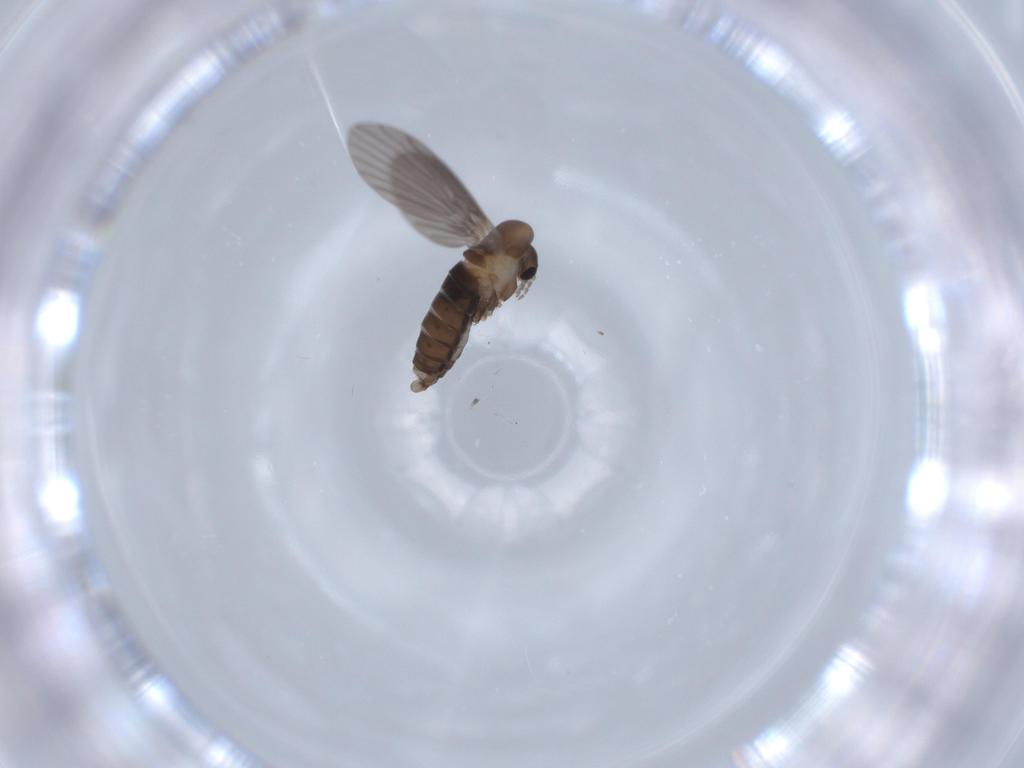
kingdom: Animalia
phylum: Arthropoda
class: Insecta
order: Diptera
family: Psychodidae
